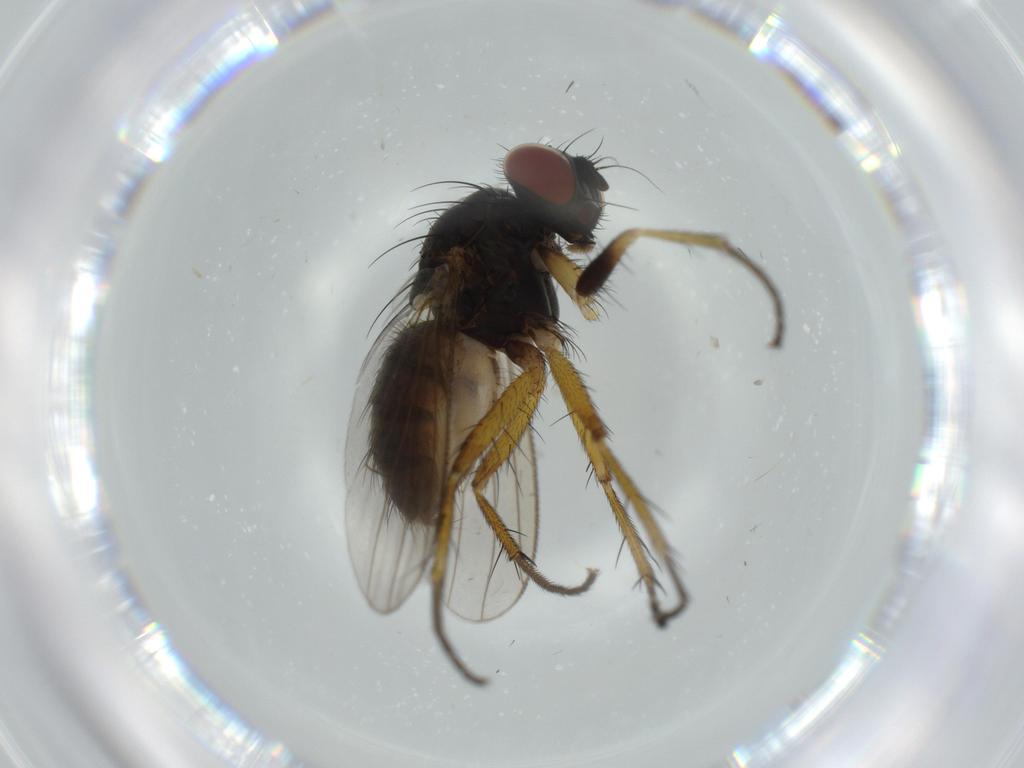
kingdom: Animalia
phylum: Arthropoda
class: Insecta
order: Diptera
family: Muscidae
